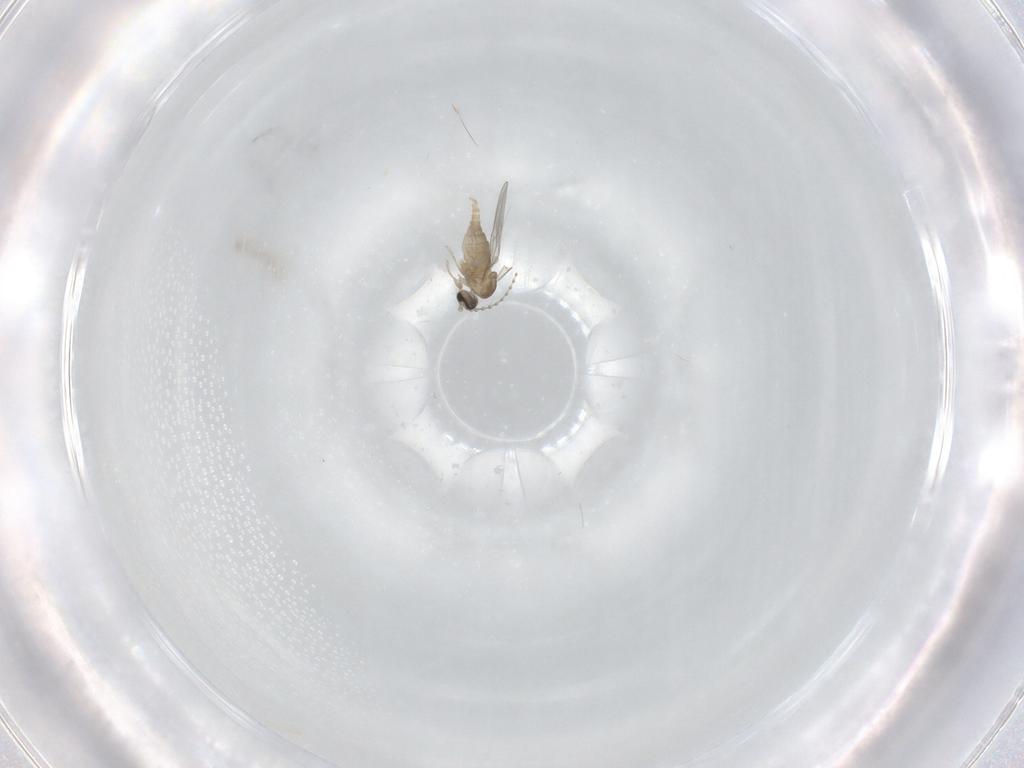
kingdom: Animalia
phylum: Arthropoda
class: Insecta
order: Diptera
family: Cecidomyiidae
